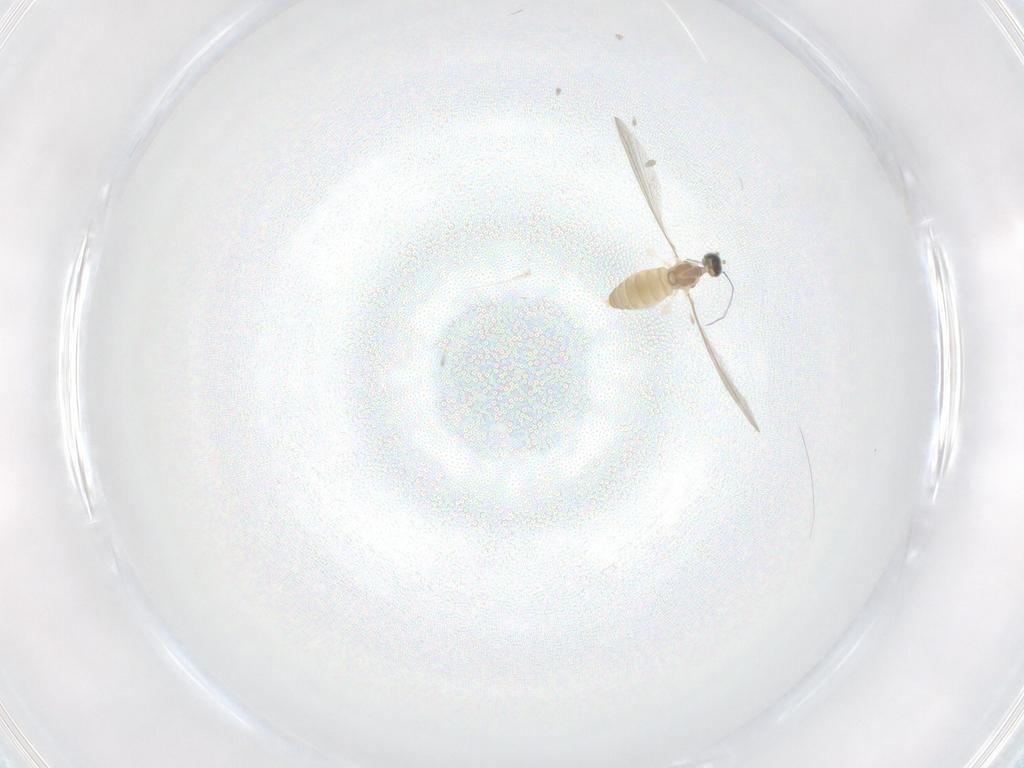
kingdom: Animalia
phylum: Arthropoda
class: Insecta
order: Diptera
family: Cecidomyiidae
